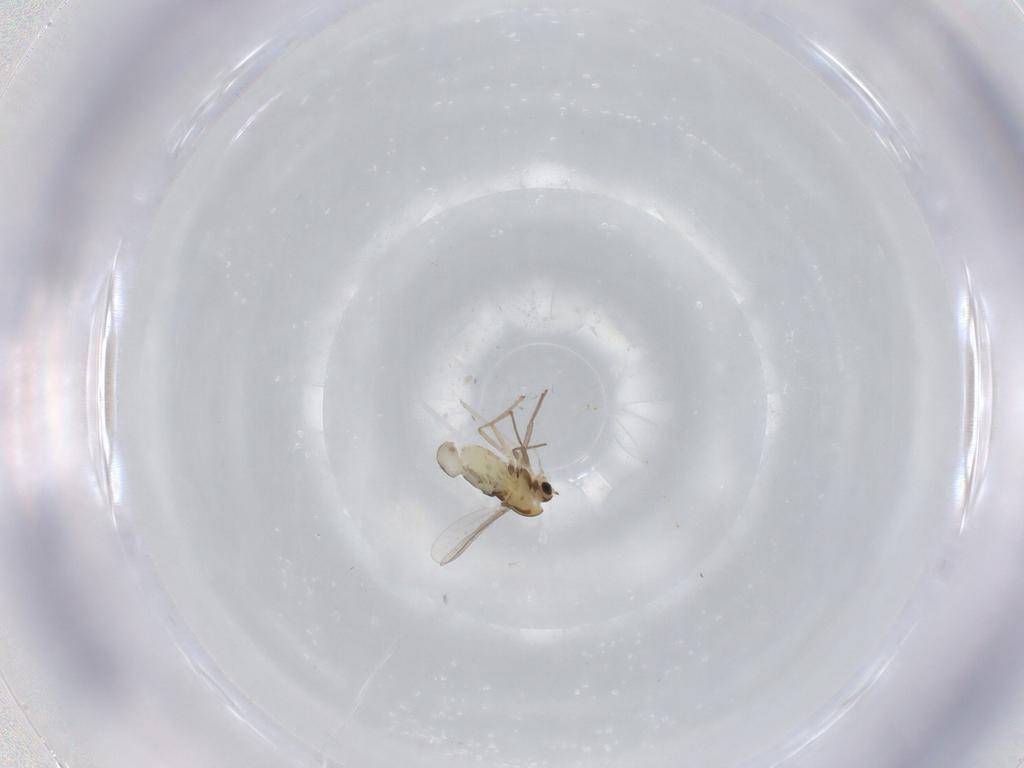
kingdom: Animalia
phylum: Arthropoda
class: Insecta
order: Diptera
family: Chironomidae
